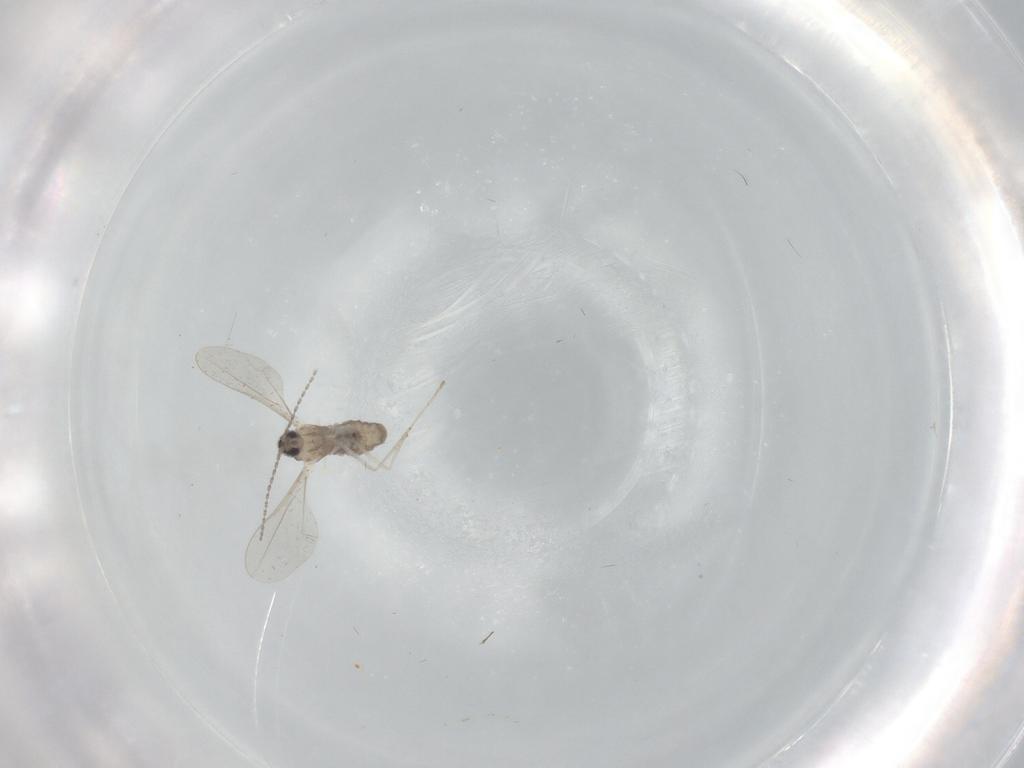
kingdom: Animalia
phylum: Arthropoda
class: Insecta
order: Diptera
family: Cecidomyiidae
